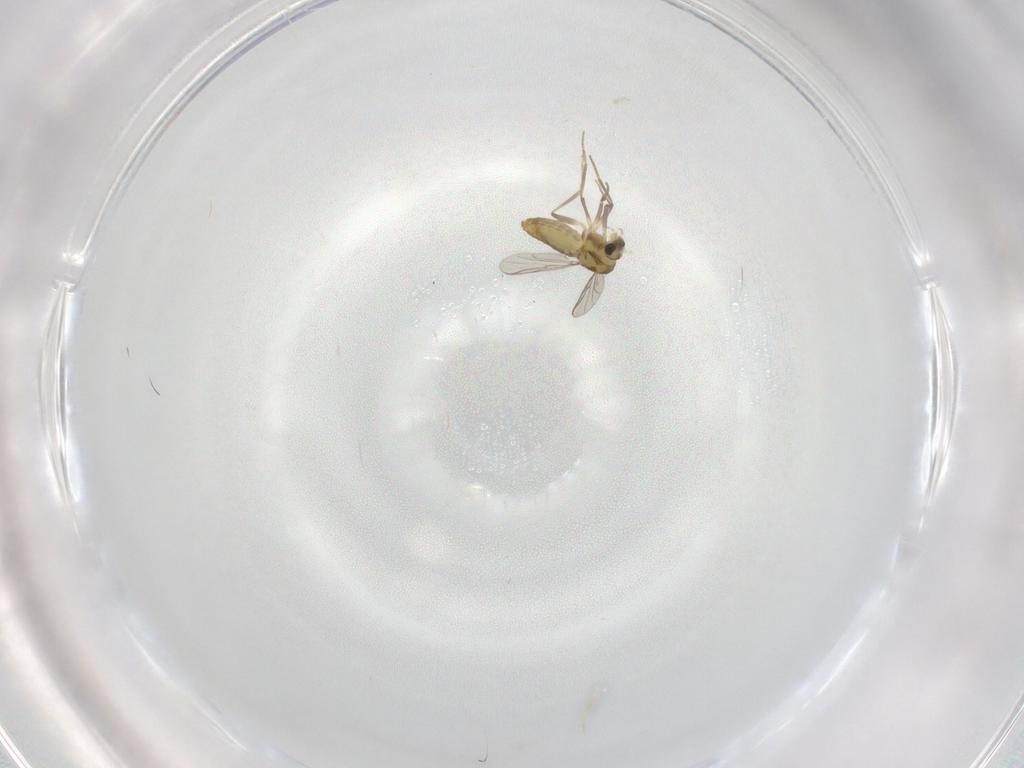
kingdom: Animalia
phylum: Arthropoda
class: Insecta
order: Diptera
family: Chironomidae
